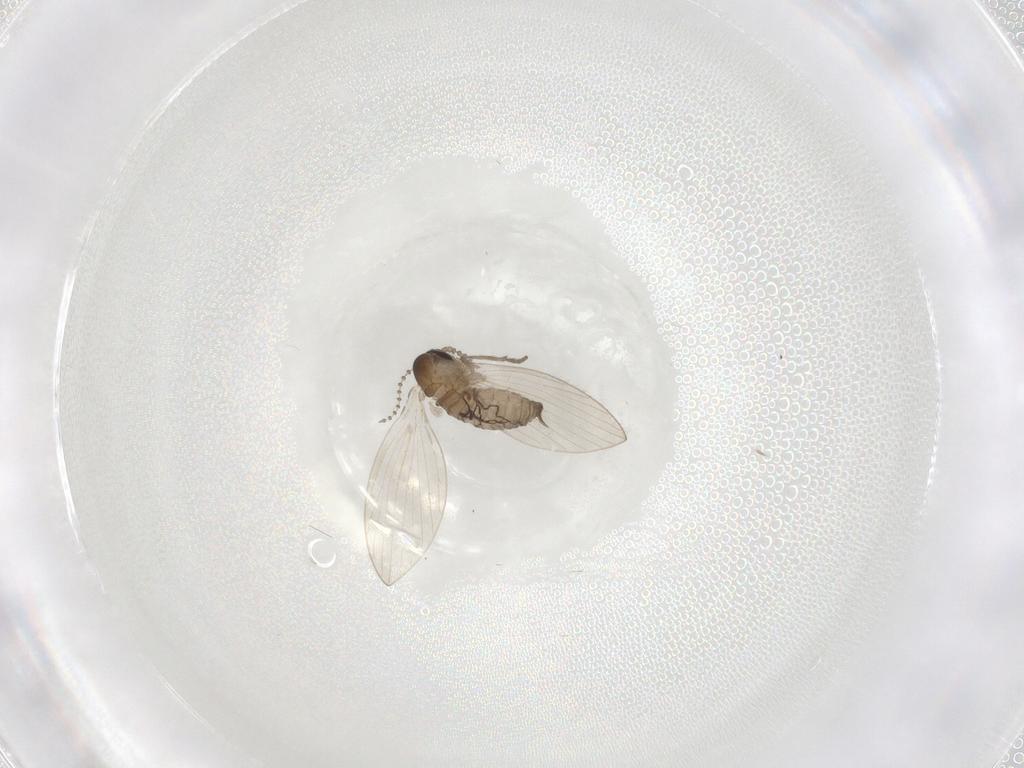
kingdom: Animalia
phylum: Arthropoda
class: Insecta
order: Diptera
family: Psychodidae
